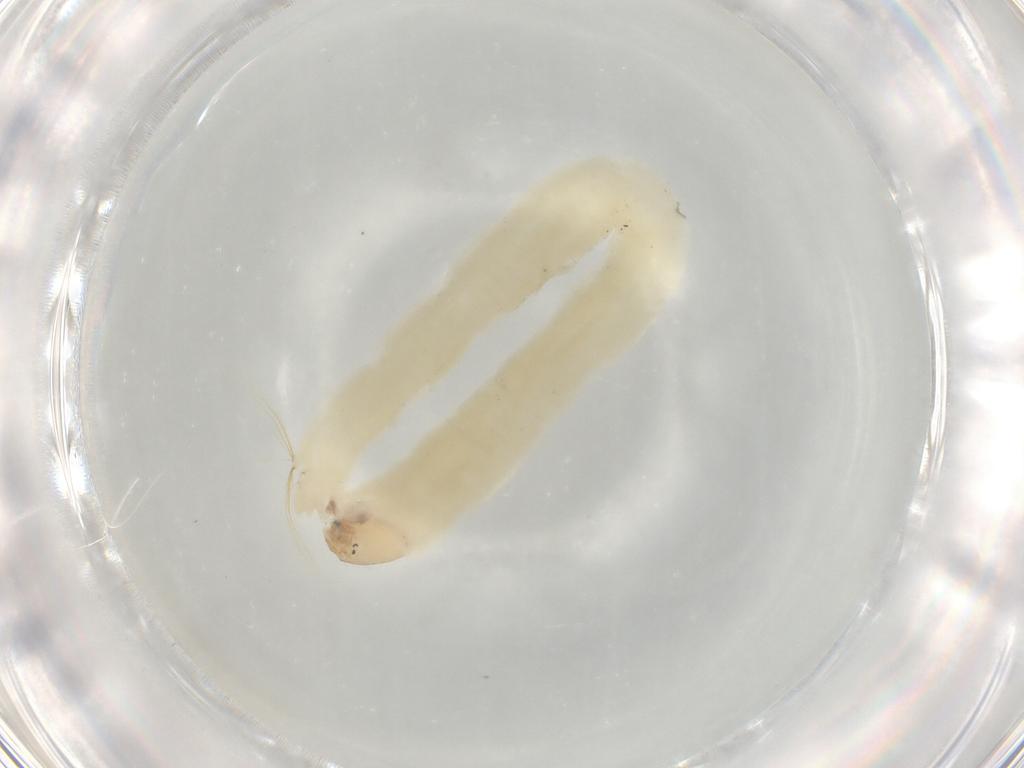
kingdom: Animalia
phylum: Arthropoda
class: Insecta
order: Diptera
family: Chironomidae
